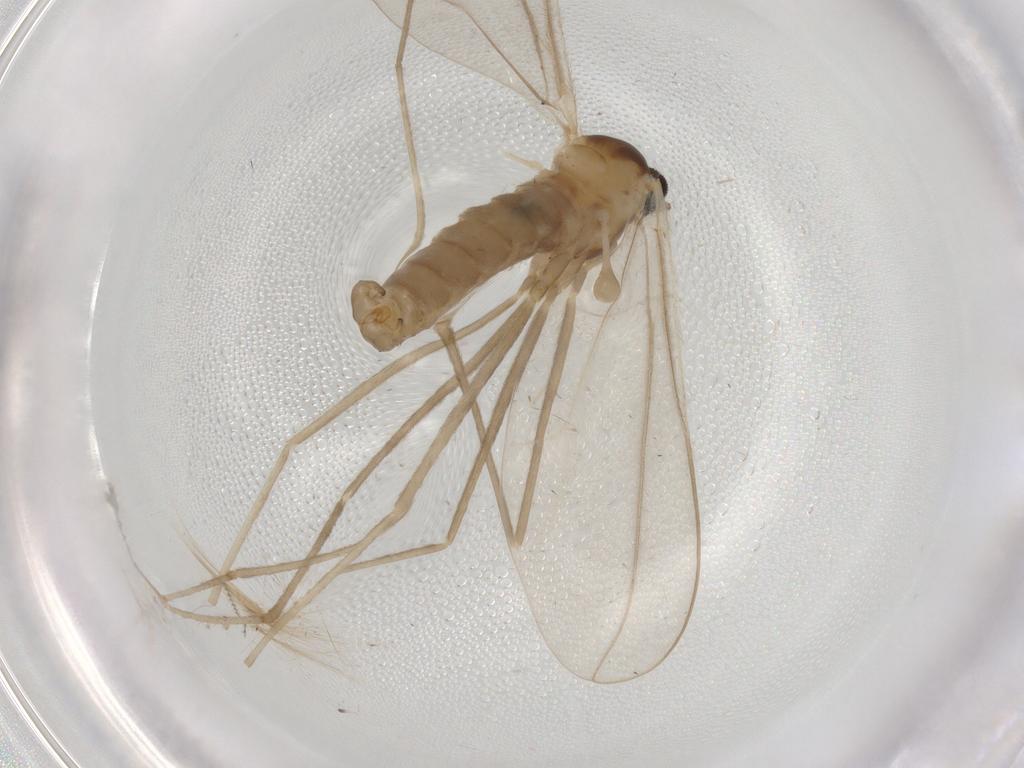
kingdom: Animalia
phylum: Arthropoda
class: Insecta
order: Diptera
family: Cecidomyiidae
